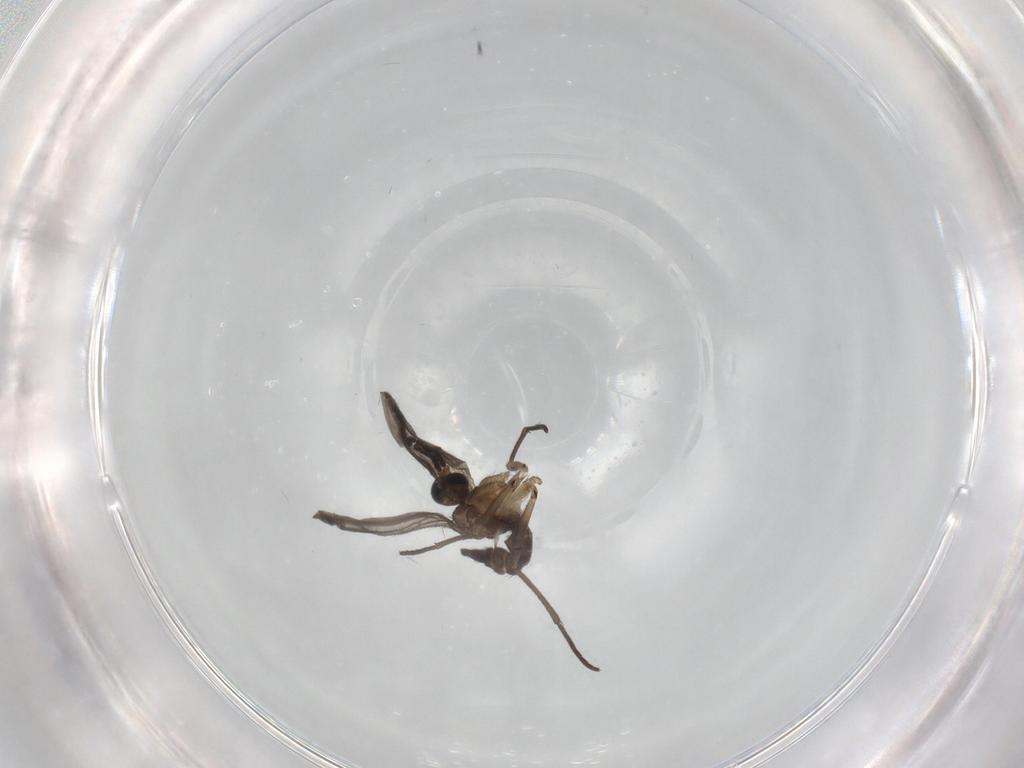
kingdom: Animalia
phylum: Arthropoda
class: Insecta
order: Diptera
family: Sciaridae
